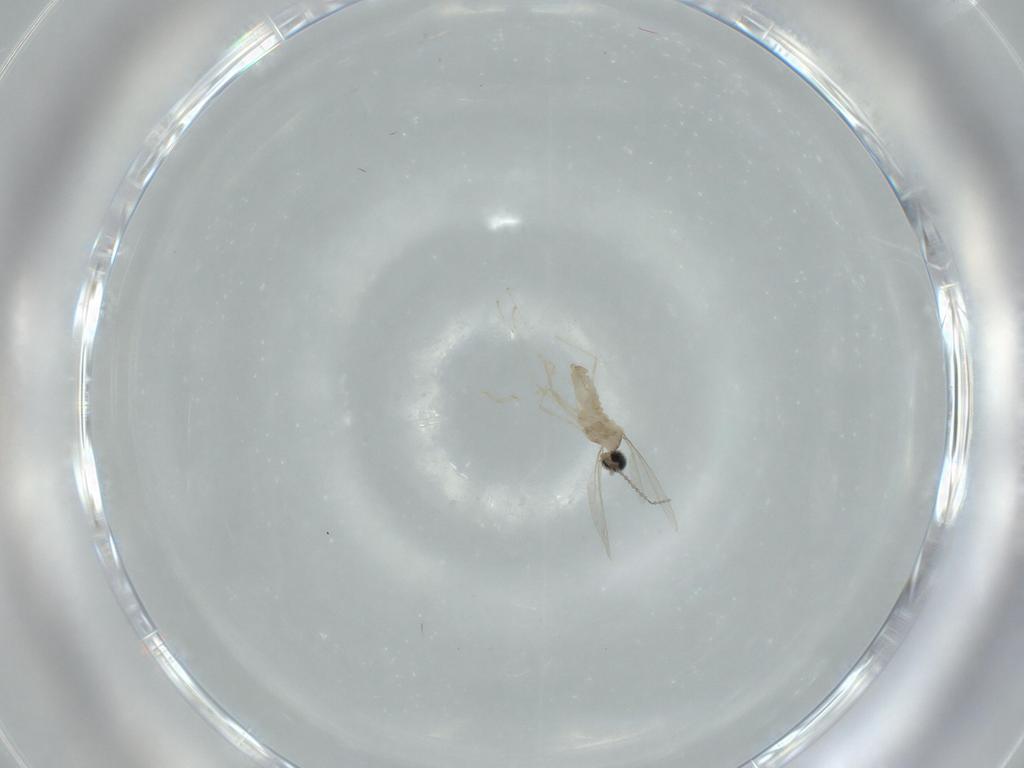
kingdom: Animalia
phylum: Arthropoda
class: Insecta
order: Diptera
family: Cecidomyiidae
